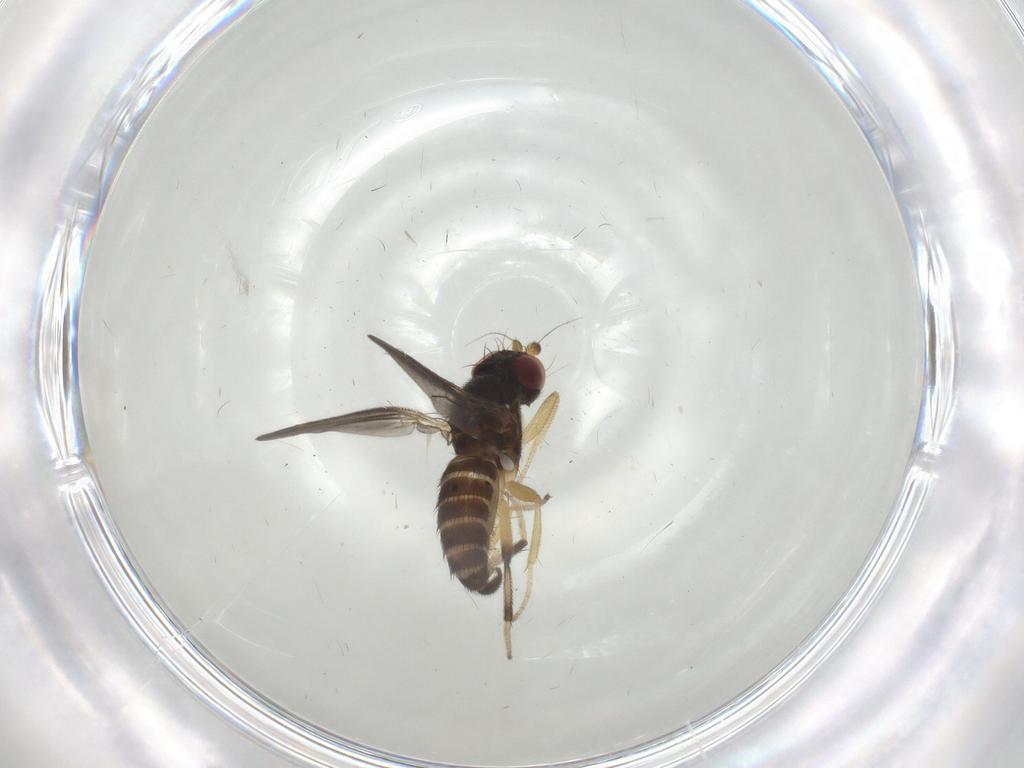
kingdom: Animalia
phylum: Arthropoda
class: Insecta
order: Diptera
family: Clusiidae
